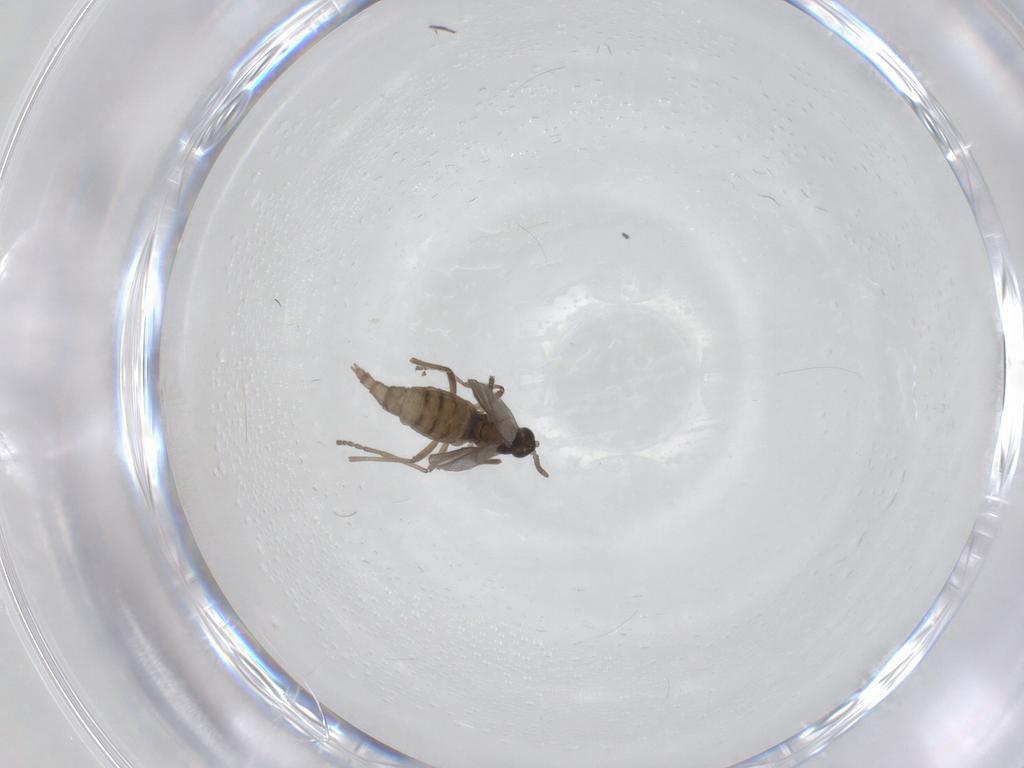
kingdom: Animalia
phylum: Arthropoda
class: Insecta
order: Diptera
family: Cecidomyiidae
